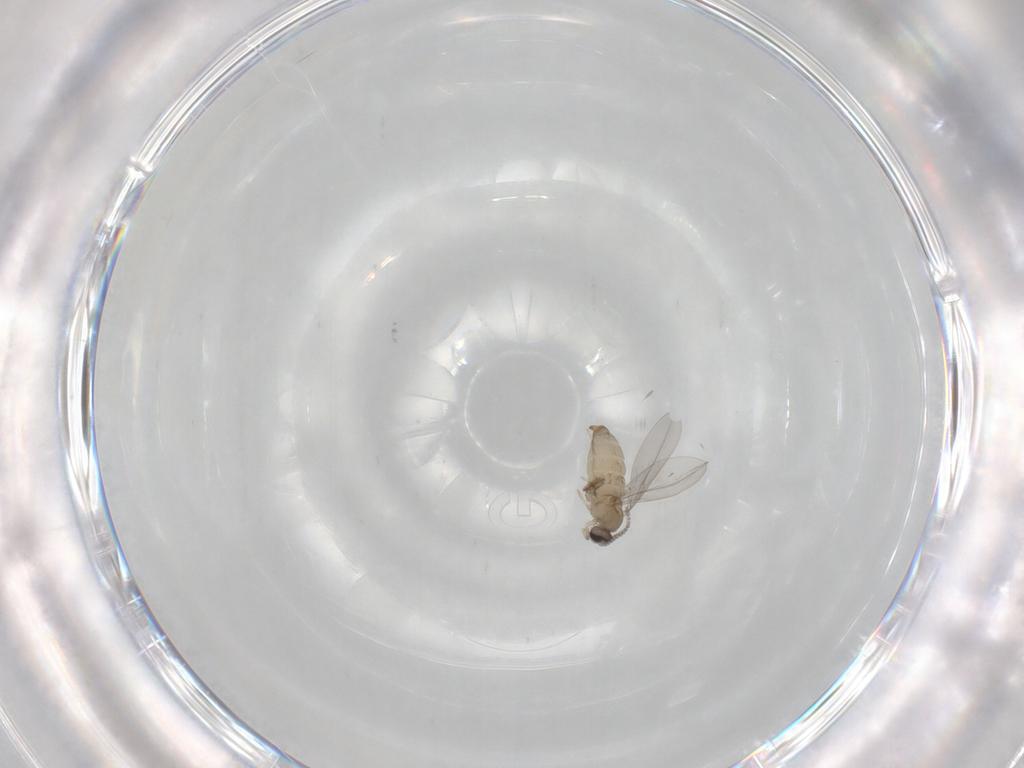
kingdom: Animalia
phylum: Arthropoda
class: Insecta
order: Diptera
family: Cecidomyiidae
